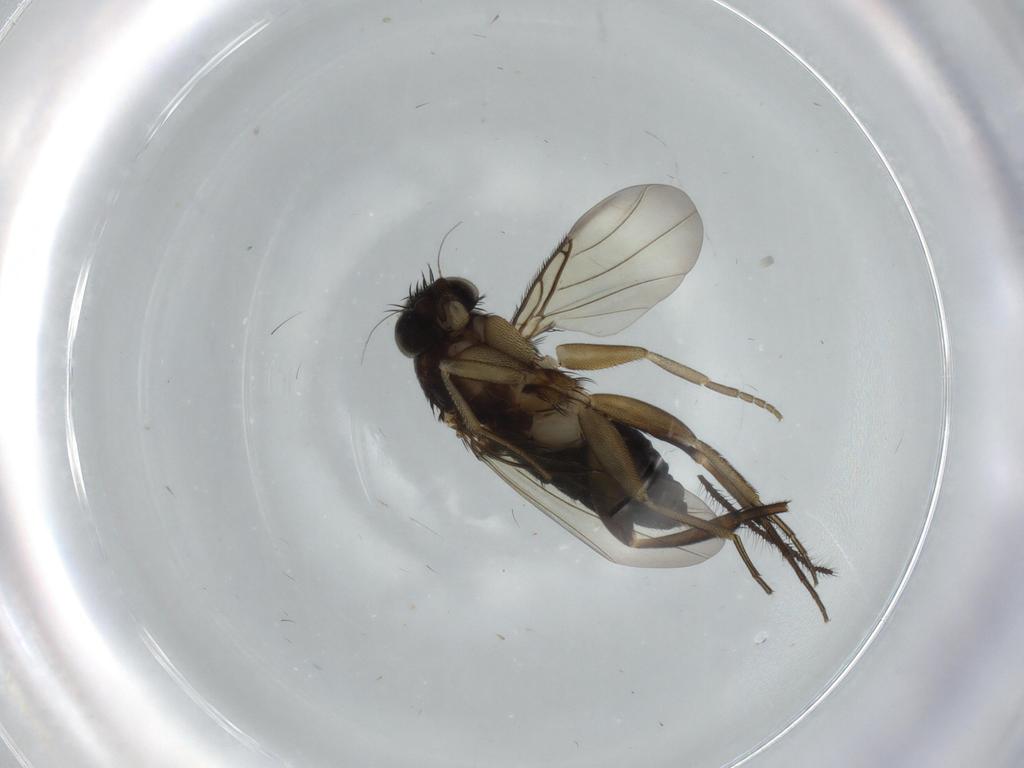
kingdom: Animalia
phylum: Arthropoda
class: Insecta
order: Diptera
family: Phoridae
